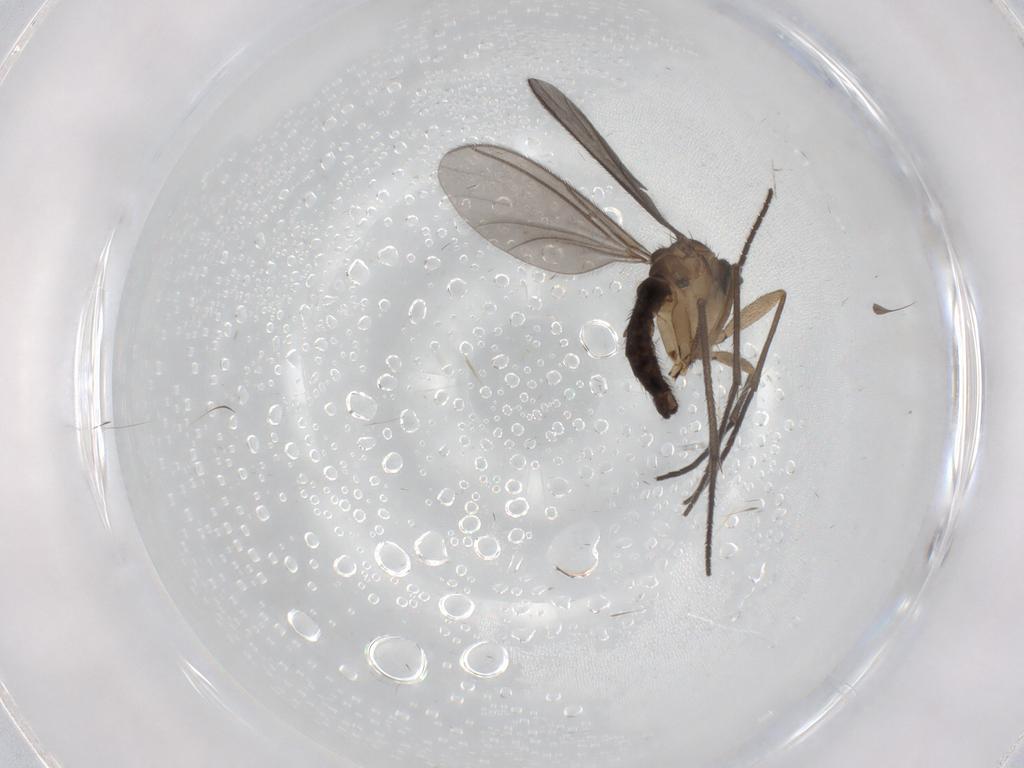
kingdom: Animalia
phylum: Arthropoda
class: Insecta
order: Diptera
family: Sciaridae
